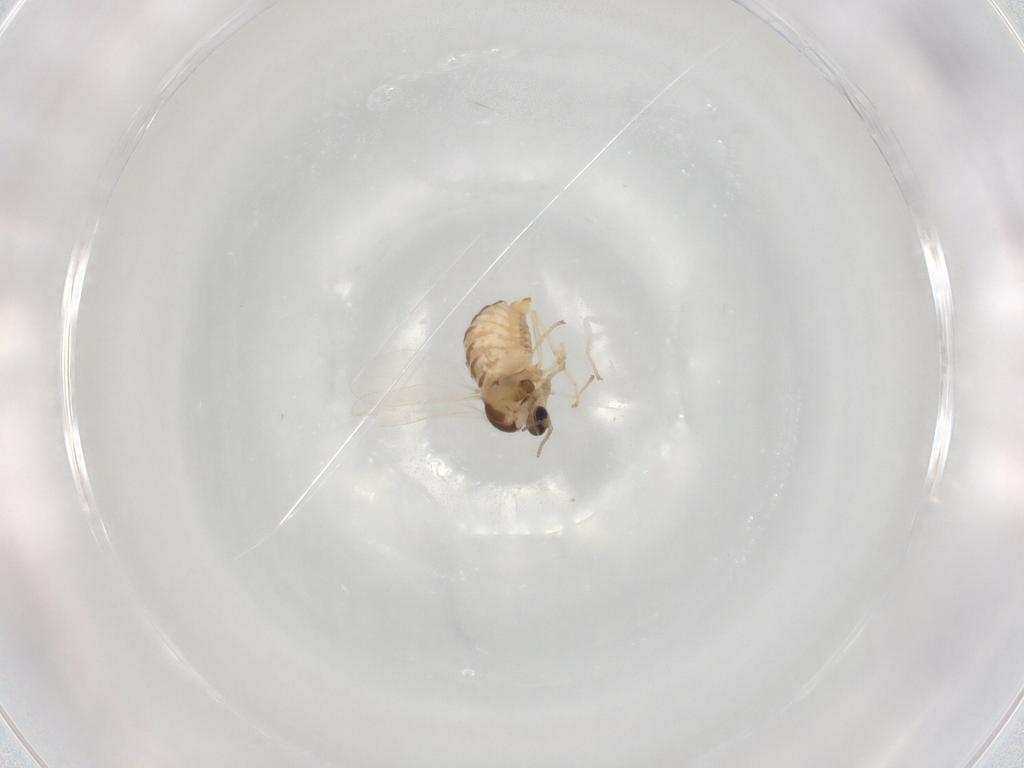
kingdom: Animalia
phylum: Arthropoda
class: Insecta
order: Diptera
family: Cecidomyiidae
